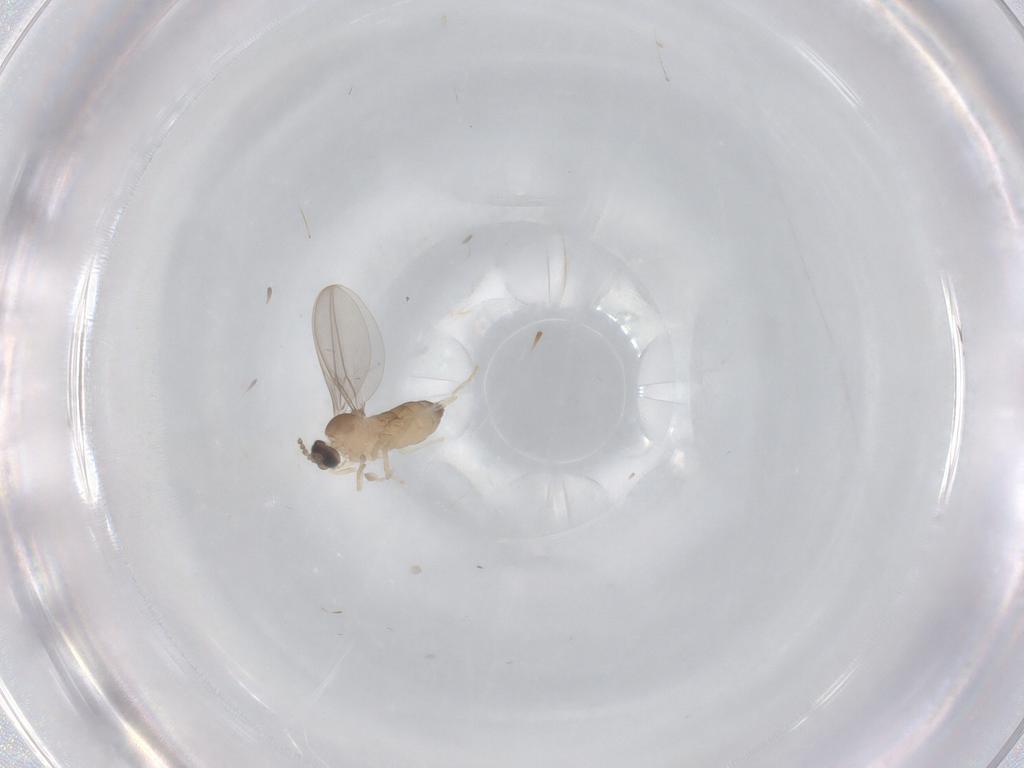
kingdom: Animalia
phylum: Arthropoda
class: Insecta
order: Diptera
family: Cecidomyiidae
